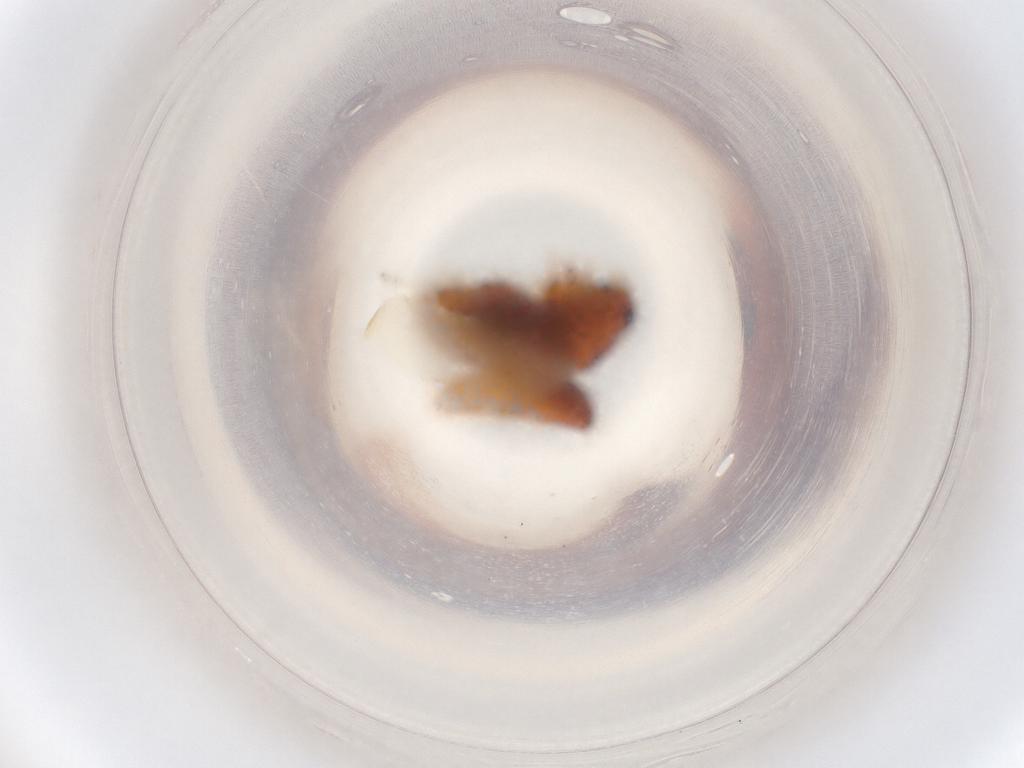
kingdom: Animalia
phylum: Arthropoda
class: Insecta
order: Coleoptera
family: Phalacridae
